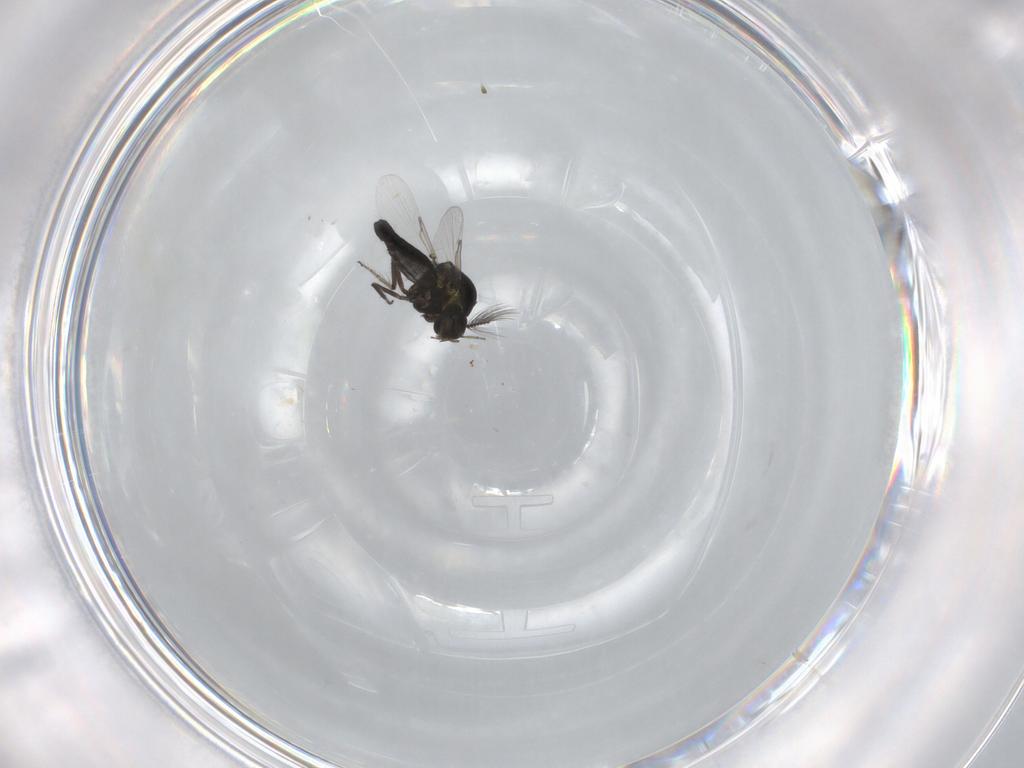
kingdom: Animalia
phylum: Arthropoda
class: Insecta
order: Diptera
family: Ceratopogonidae
